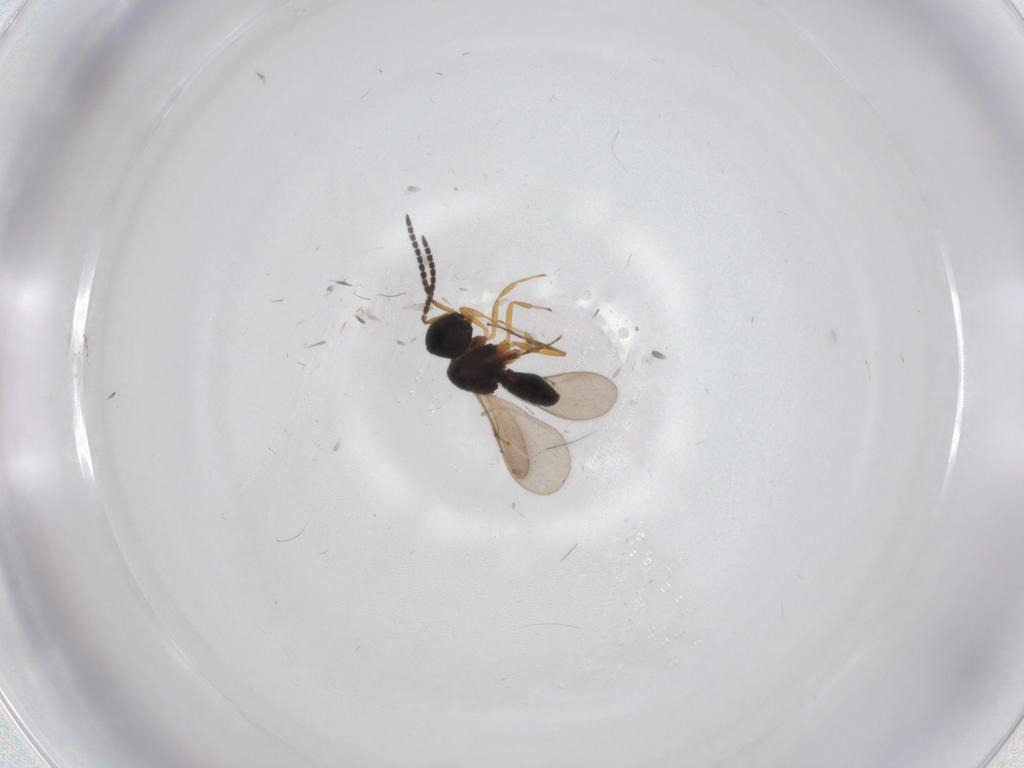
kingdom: Animalia
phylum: Arthropoda
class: Insecta
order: Hymenoptera
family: Scelionidae
